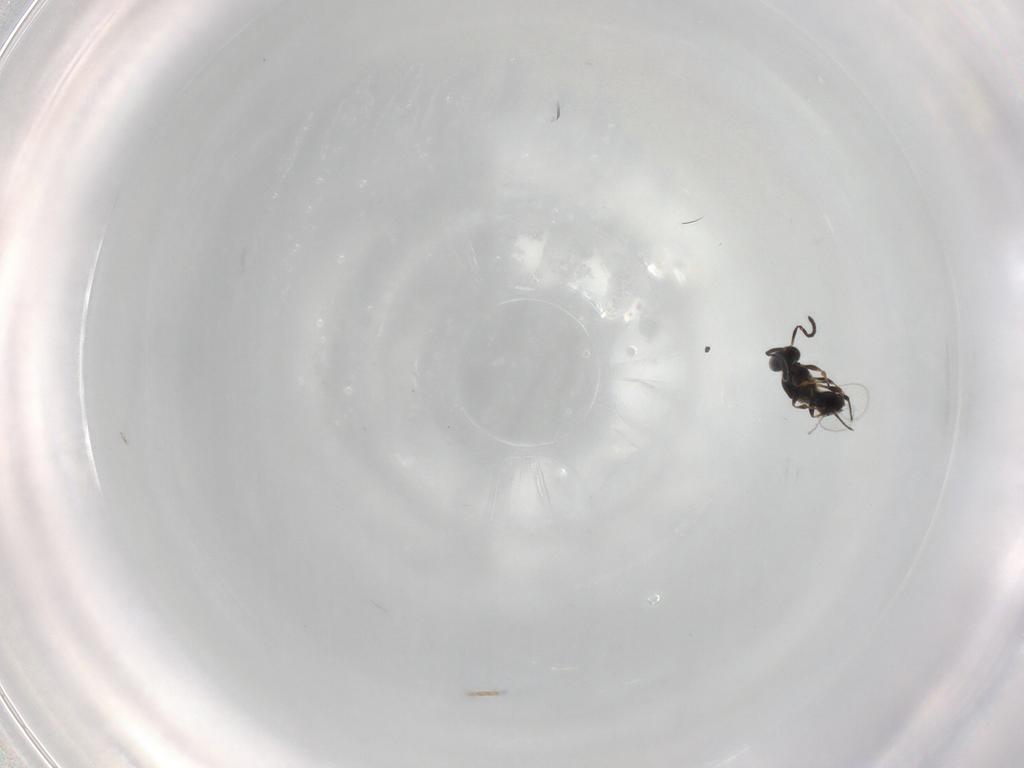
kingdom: Animalia
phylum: Arthropoda
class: Insecta
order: Hymenoptera
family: Platygastridae
